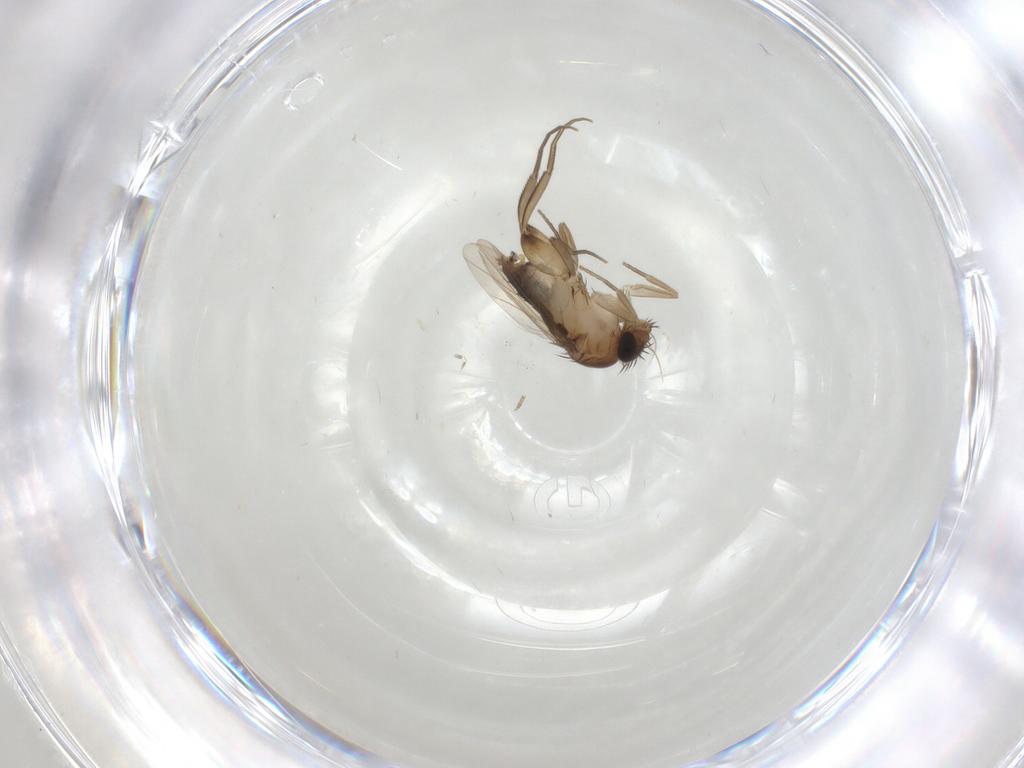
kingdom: Animalia
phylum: Arthropoda
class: Insecta
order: Diptera
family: Phoridae
